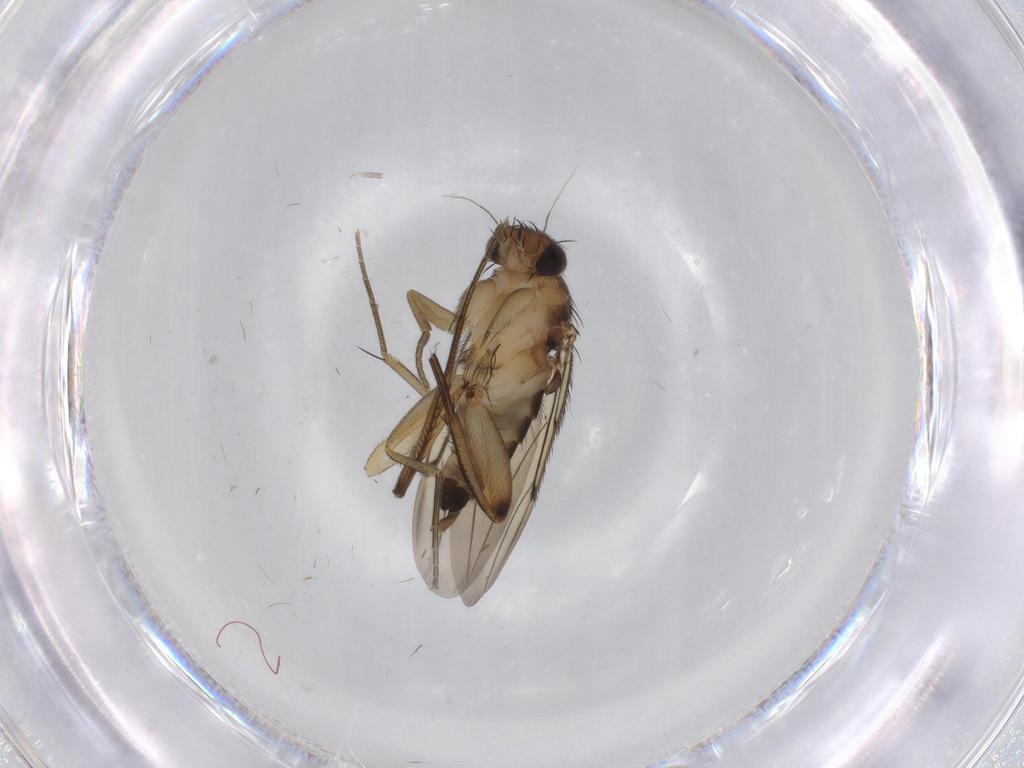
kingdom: Animalia
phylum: Arthropoda
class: Insecta
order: Diptera
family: Phoridae
